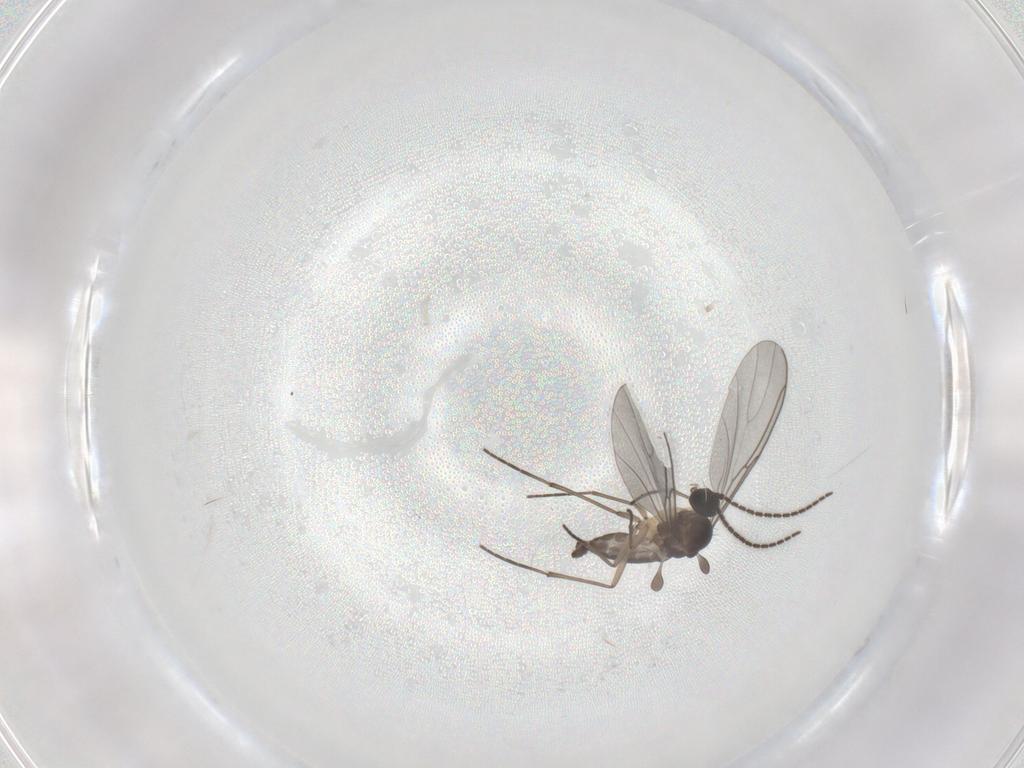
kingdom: Animalia
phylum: Arthropoda
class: Insecta
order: Diptera
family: Sciaridae
